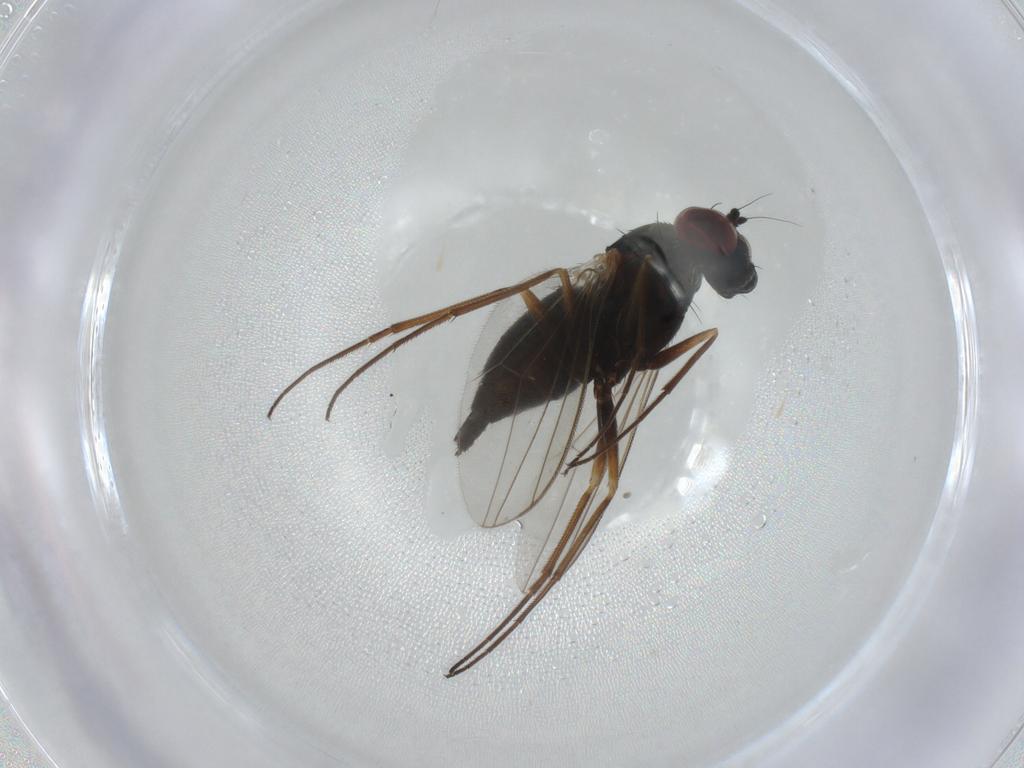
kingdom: Animalia
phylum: Arthropoda
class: Insecta
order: Diptera
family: Dolichopodidae
